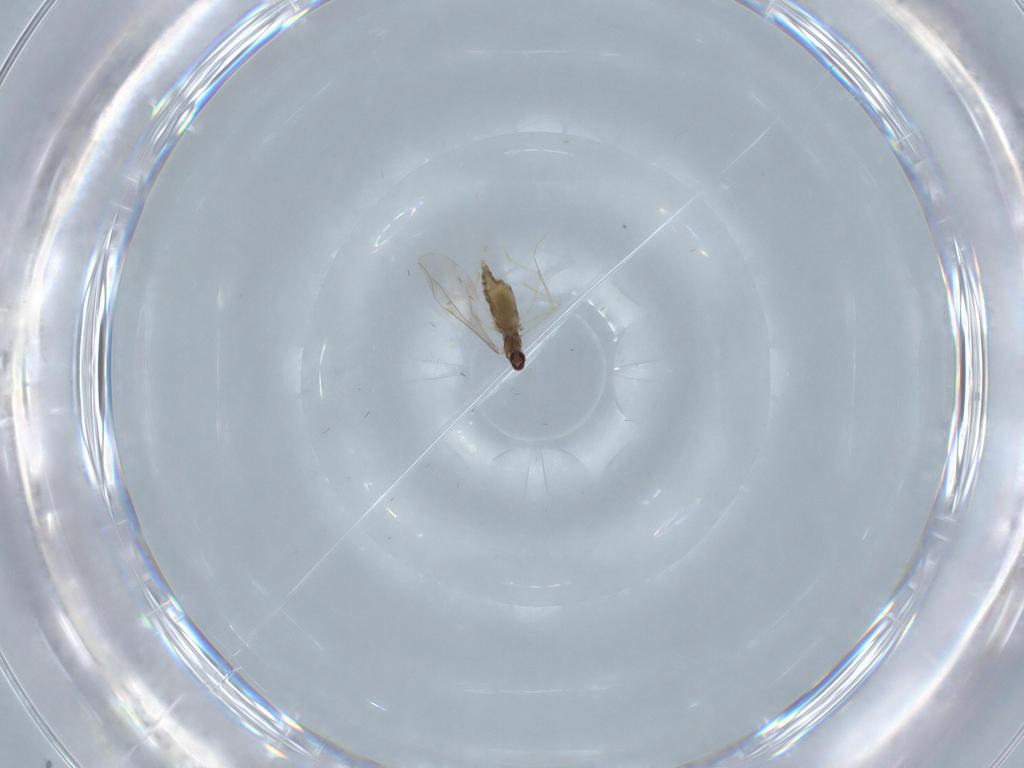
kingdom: Animalia
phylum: Arthropoda
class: Insecta
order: Diptera
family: Cecidomyiidae
